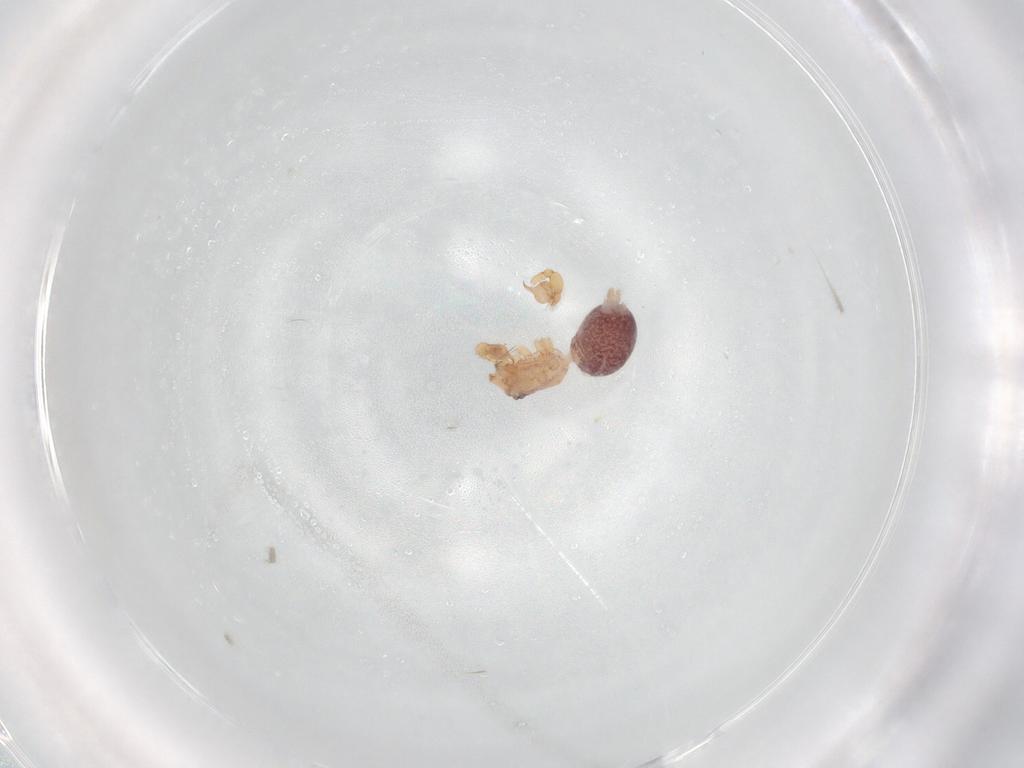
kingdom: Animalia
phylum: Arthropoda
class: Arachnida
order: Araneae
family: Oonopidae
